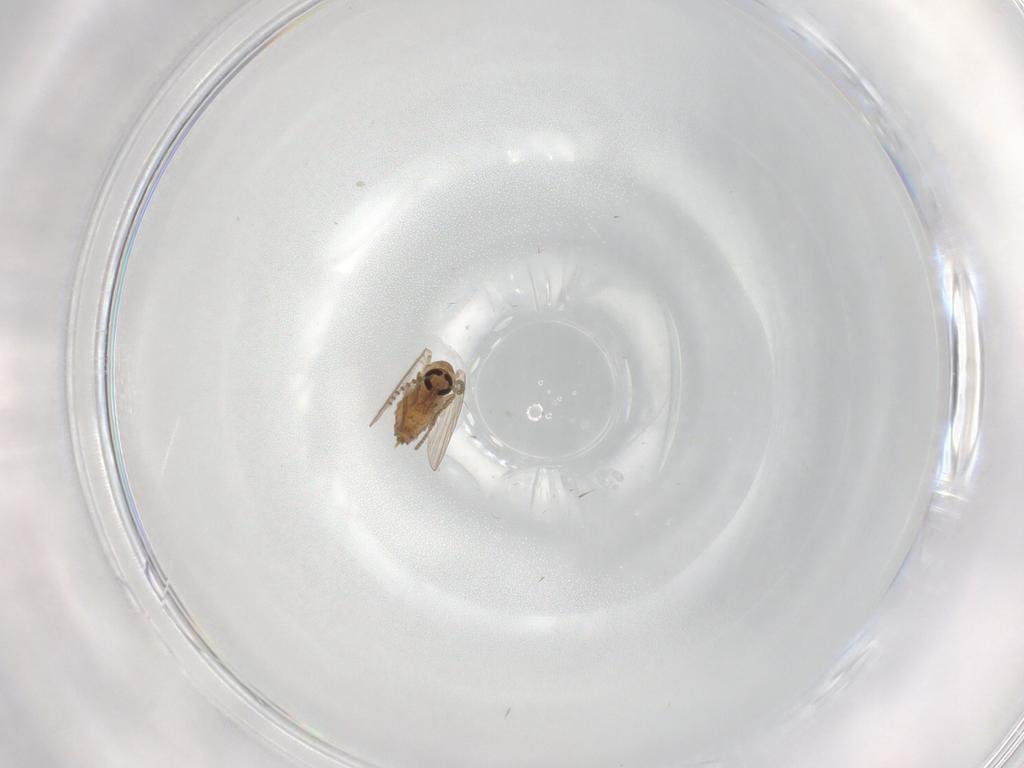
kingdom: Animalia
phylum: Arthropoda
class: Insecta
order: Diptera
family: Psychodidae
